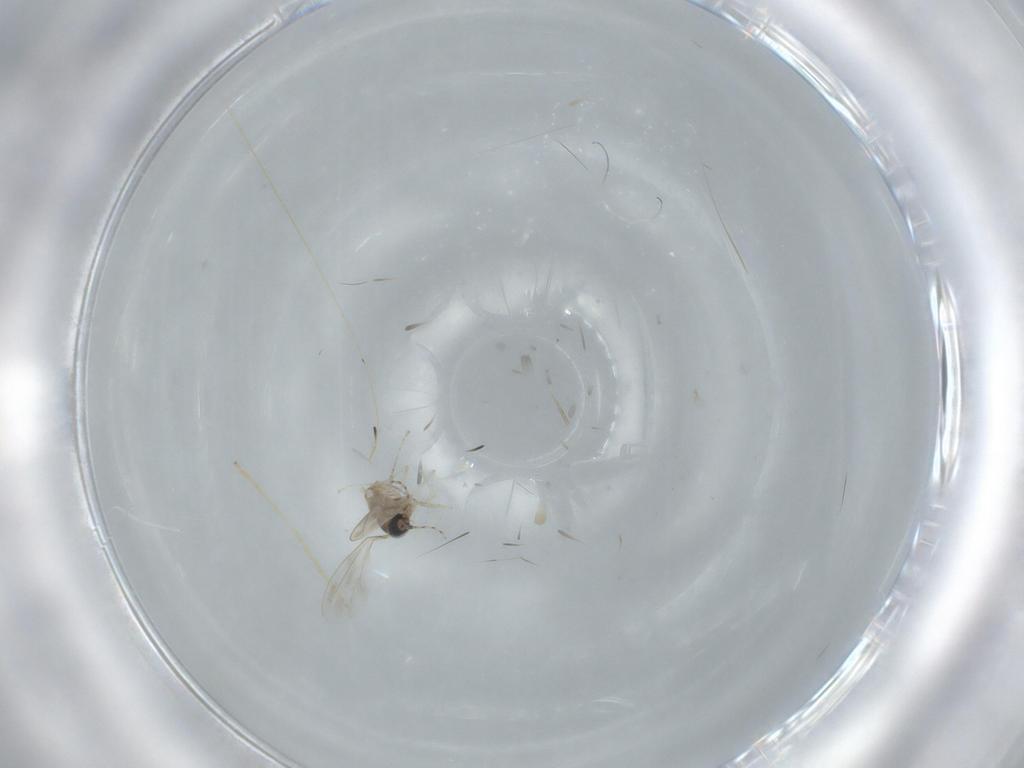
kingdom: Animalia
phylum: Arthropoda
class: Insecta
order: Diptera
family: Cecidomyiidae
